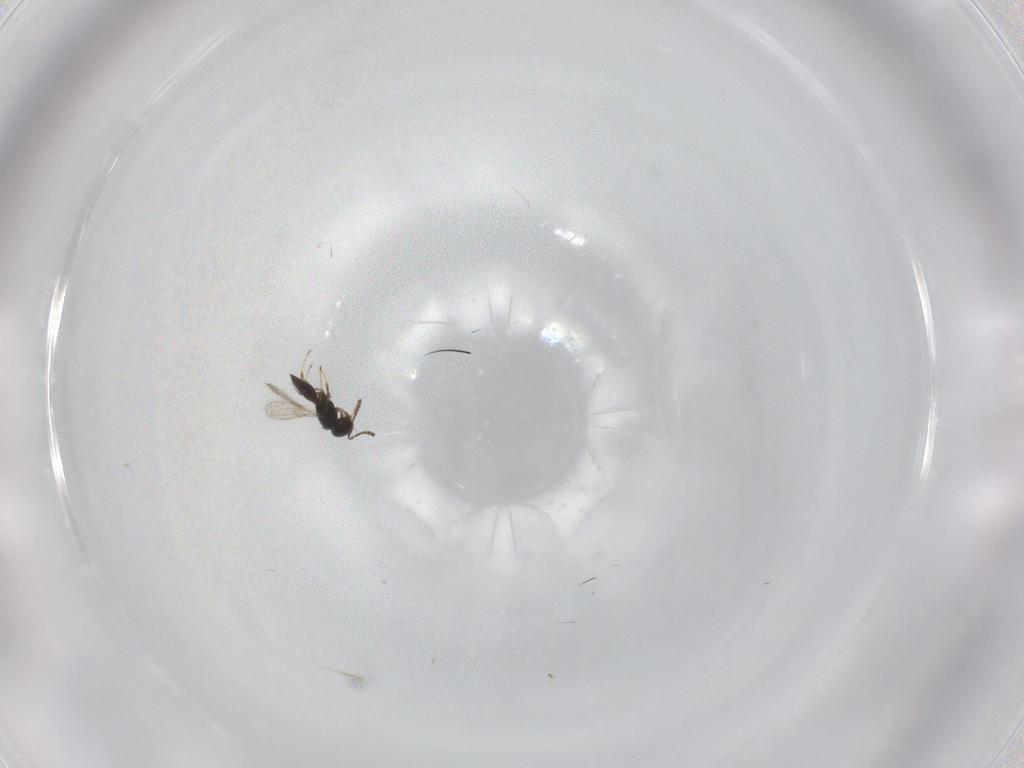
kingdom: Animalia
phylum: Arthropoda
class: Insecta
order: Hymenoptera
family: Scelionidae
